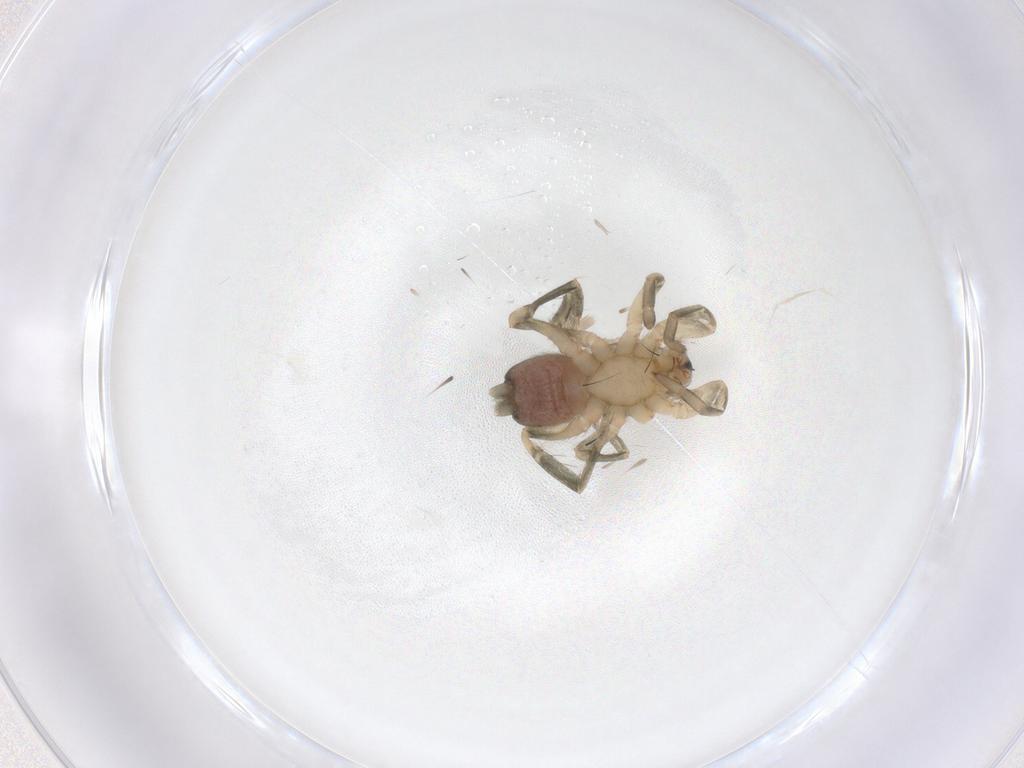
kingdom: Animalia
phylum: Arthropoda
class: Arachnida
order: Araneae
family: Gnaphosidae
